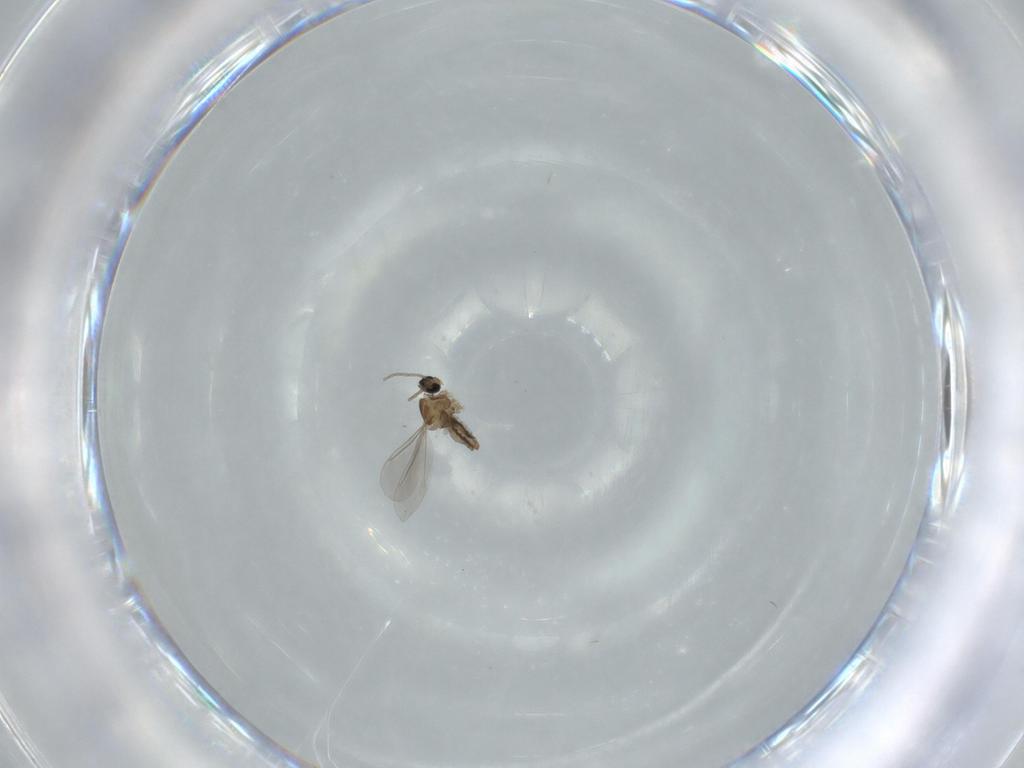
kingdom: Animalia
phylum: Arthropoda
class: Insecta
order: Diptera
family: Cecidomyiidae
